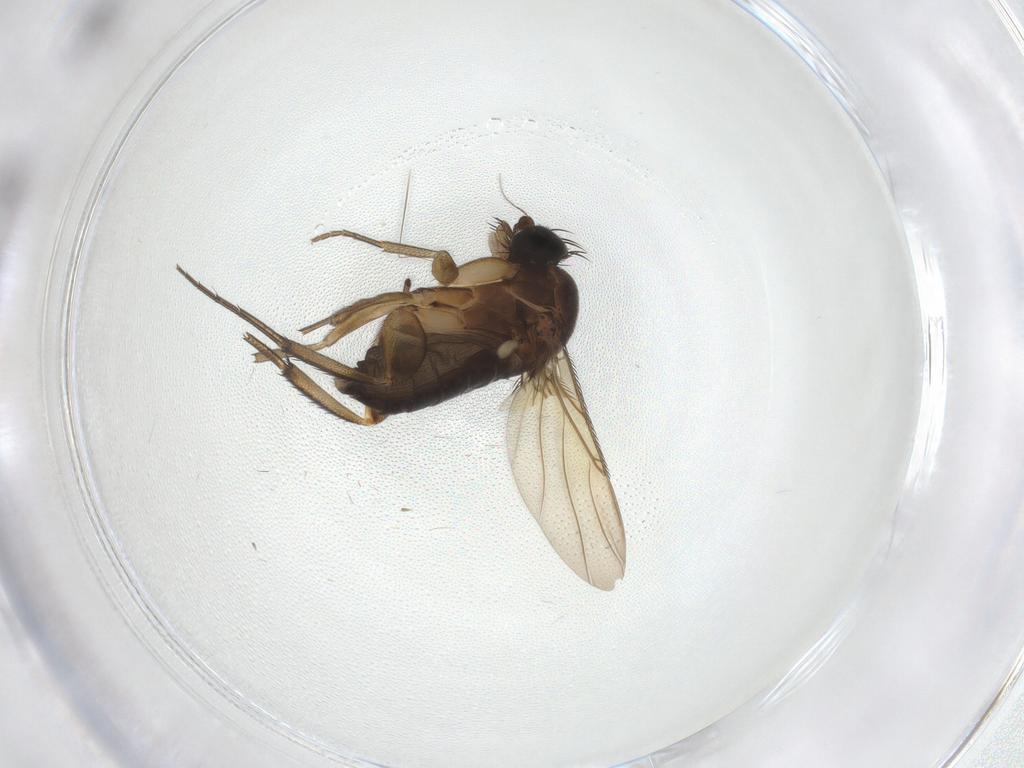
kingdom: Animalia
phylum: Arthropoda
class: Insecta
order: Diptera
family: Phoridae
